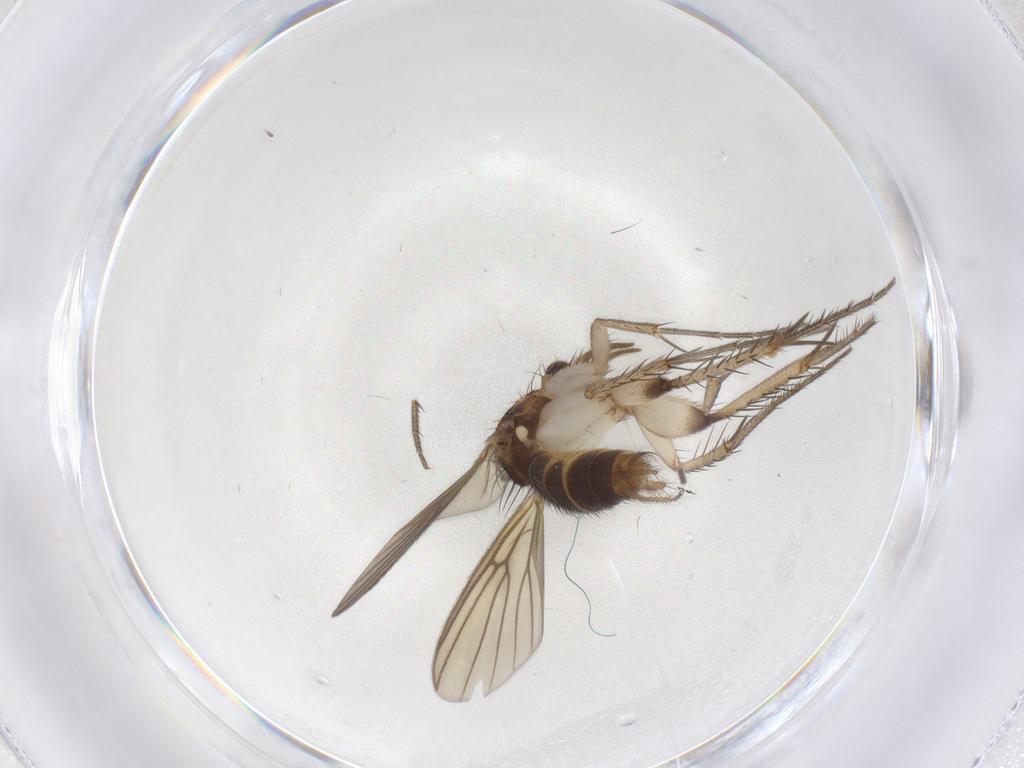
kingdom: Animalia
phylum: Arthropoda
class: Insecta
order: Diptera
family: Mycetophilidae
